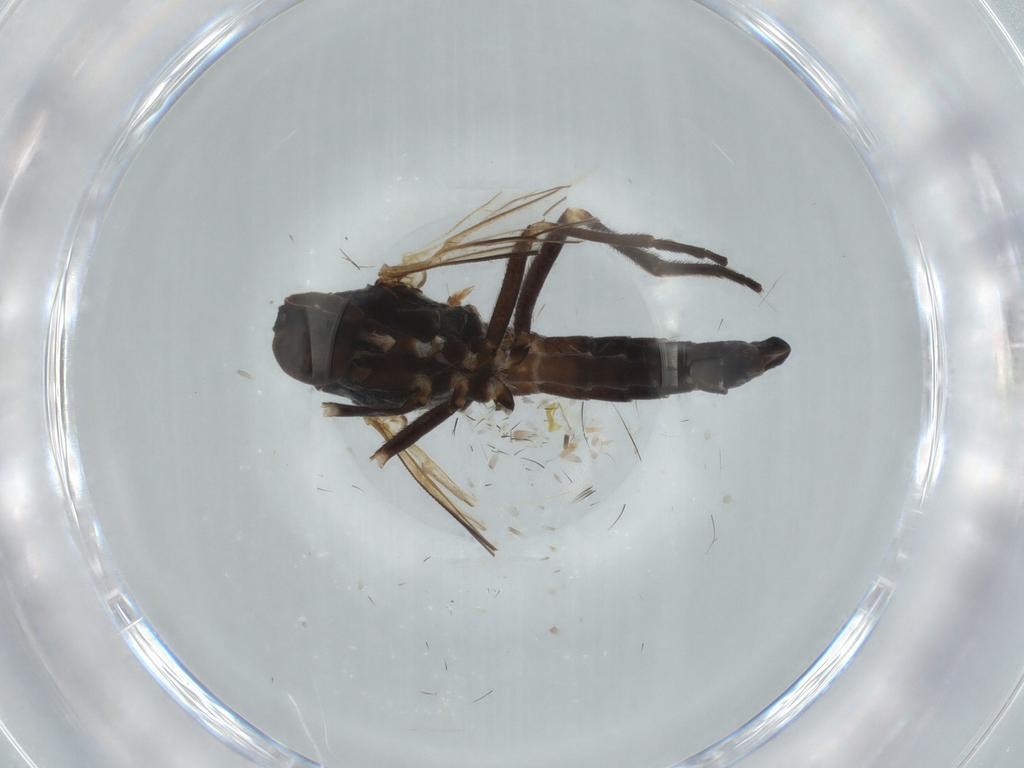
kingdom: Animalia
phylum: Arthropoda
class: Insecta
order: Diptera
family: Empididae
